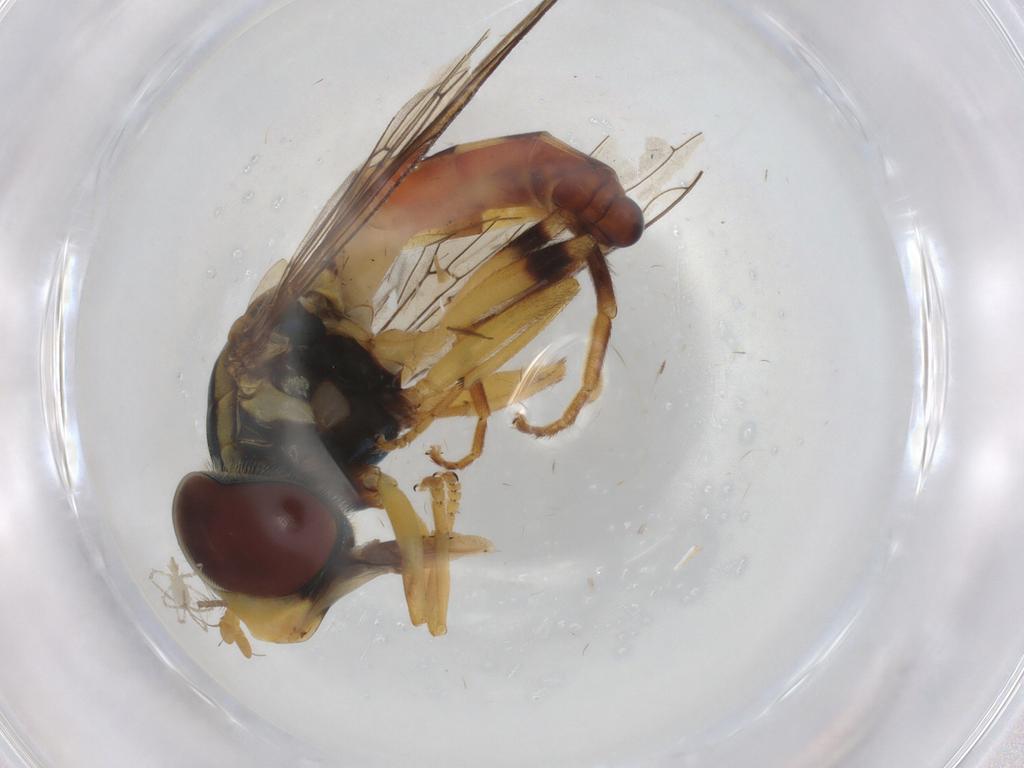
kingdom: Animalia
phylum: Arthropoda
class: Insecta
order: Diptera
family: Syrphidae
